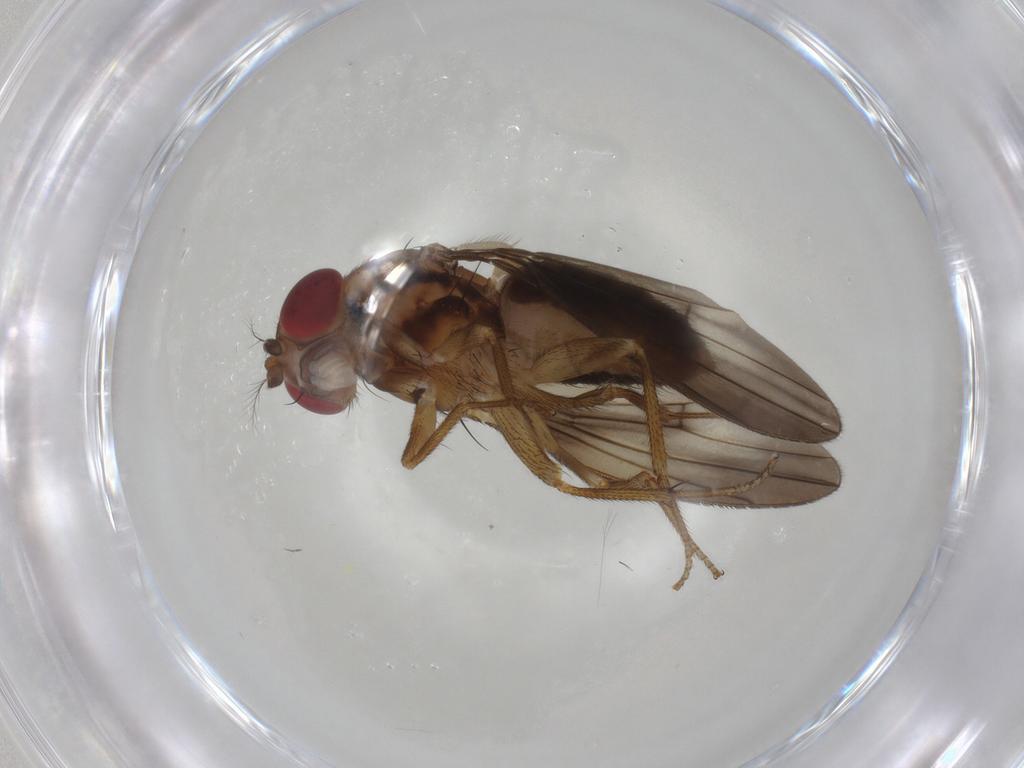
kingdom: Animalia
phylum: Arthropoda
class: Insecta
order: Diptera
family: Drosophilidae
